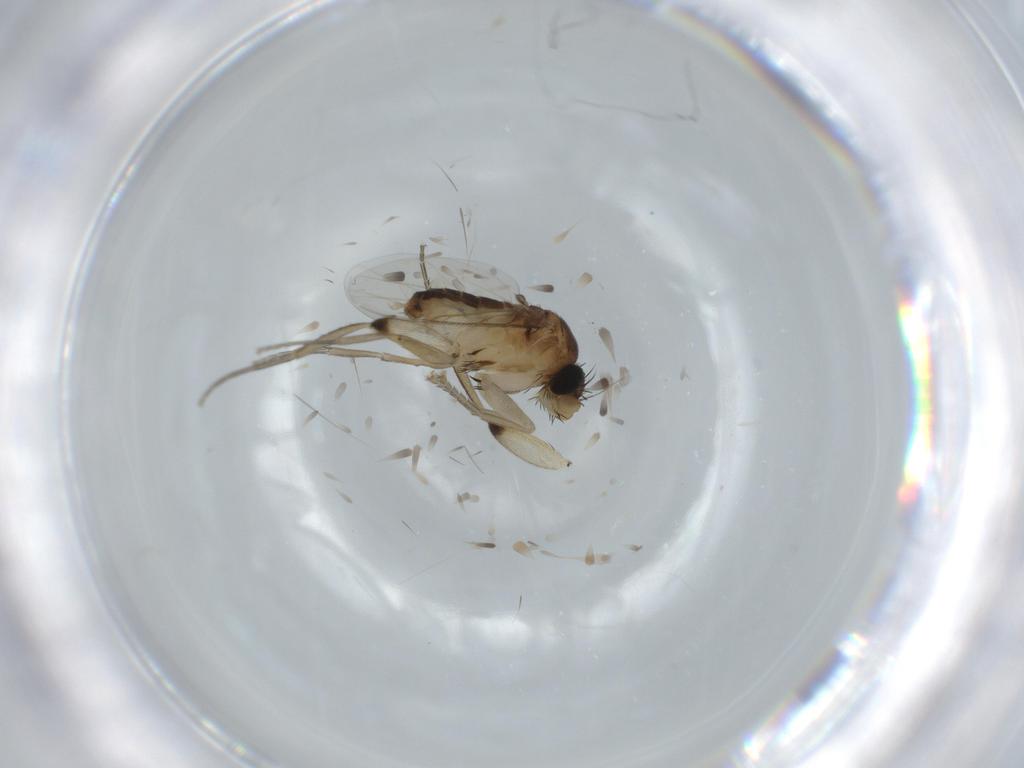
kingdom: Animalia
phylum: Arthropoda
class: Insecta
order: Diptera
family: Phoridae
